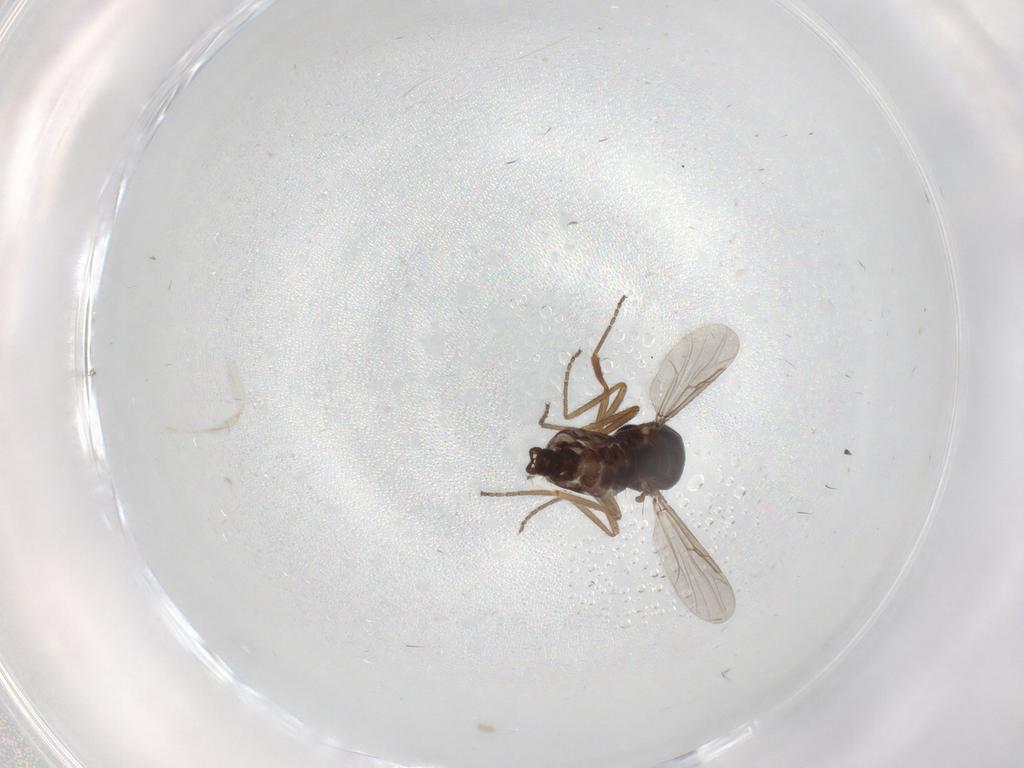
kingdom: Animalia
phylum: Arthropoda
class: Insecta
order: Diptera
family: Ceratopogonidae
